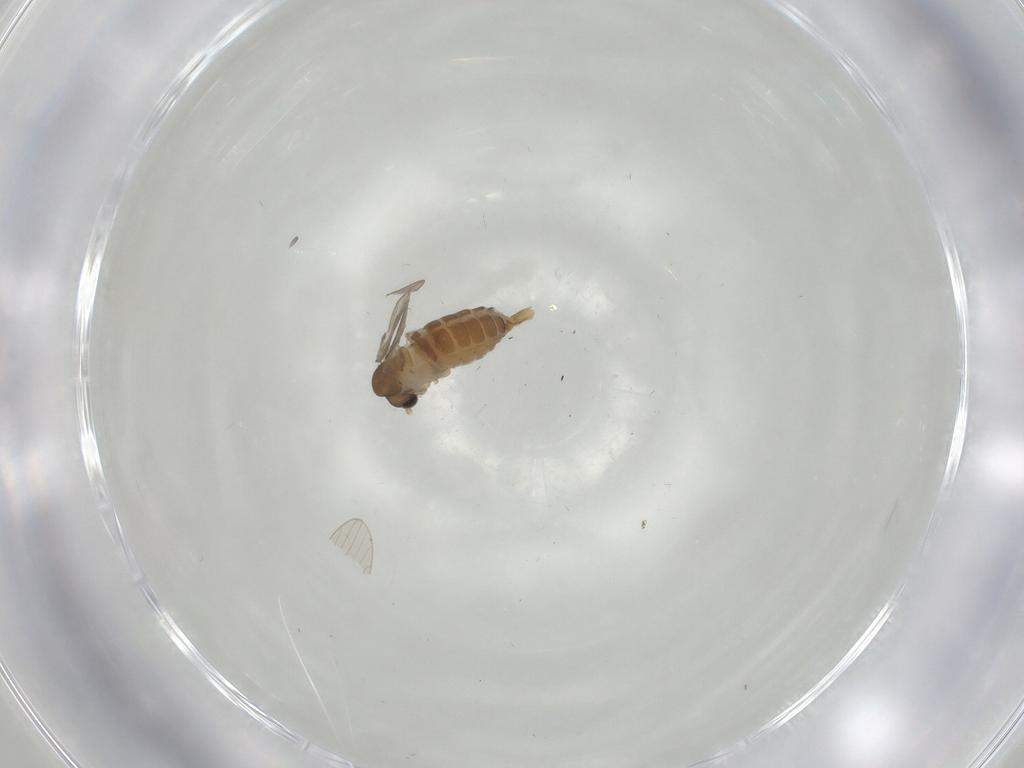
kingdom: Animalia
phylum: Arthropoda
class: Insecta
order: Diptera
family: Psychodidae
